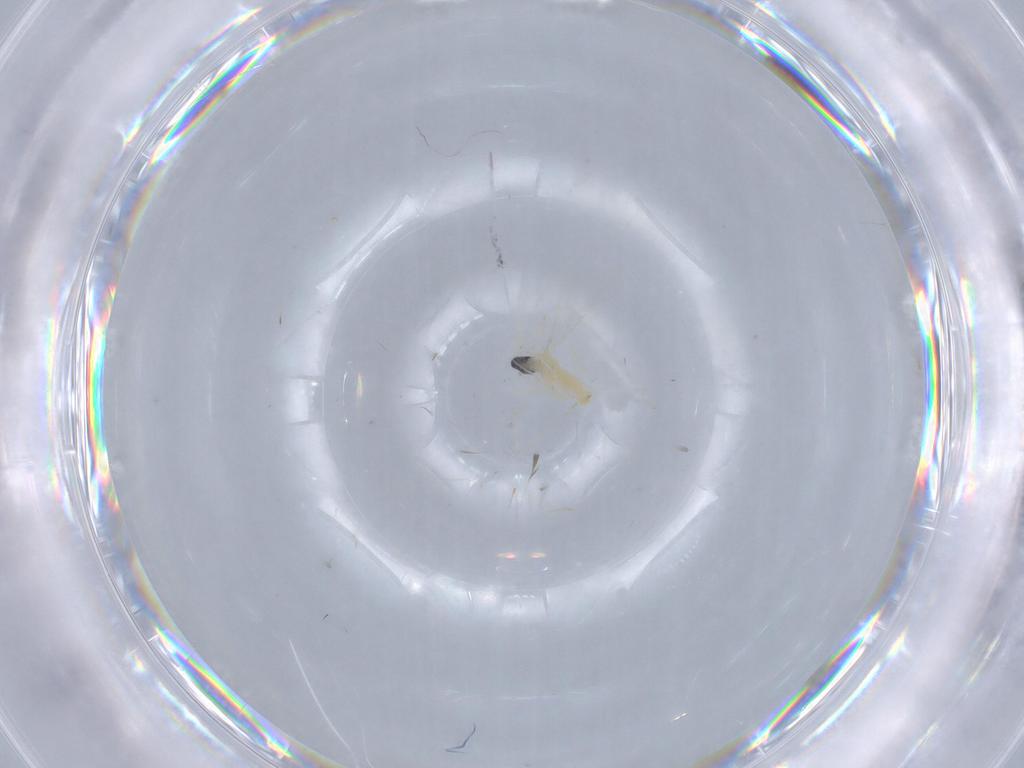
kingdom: Animalia
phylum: Arthropoda
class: Insecta
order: Diptera
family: Cecidomyiidae
